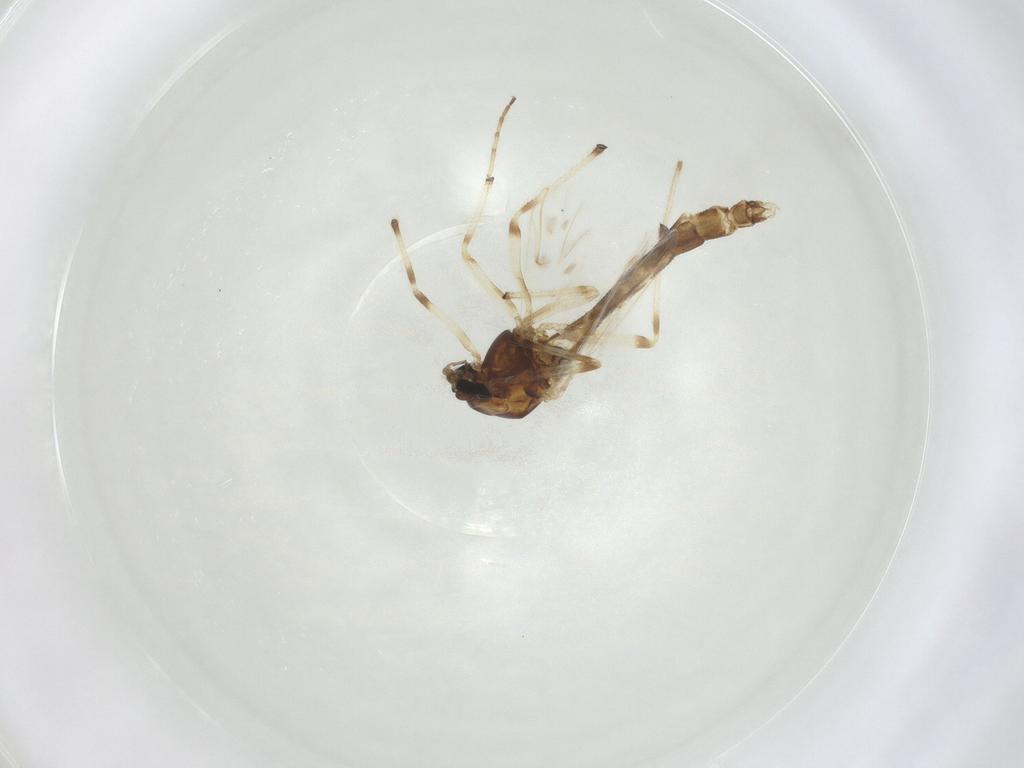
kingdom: Animalia
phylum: Arthropoda
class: Insecta
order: Diptera
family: Chironomidae
